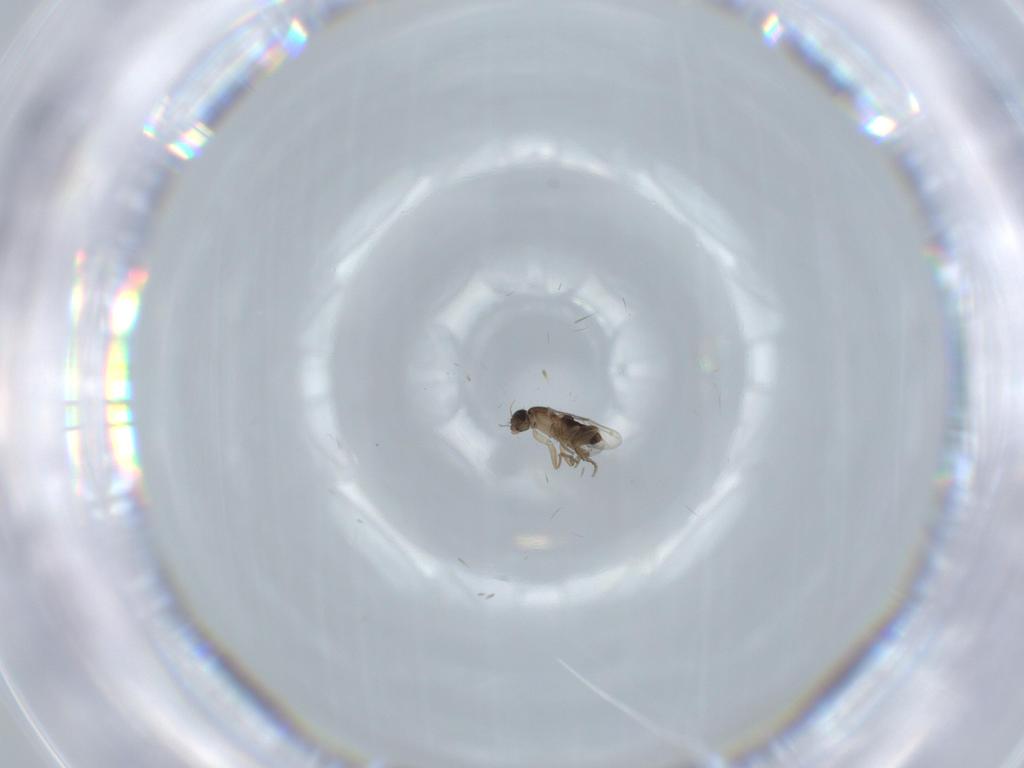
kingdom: Animalia
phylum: Arthropoda
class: Insecta
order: Diptera
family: Phoridae
